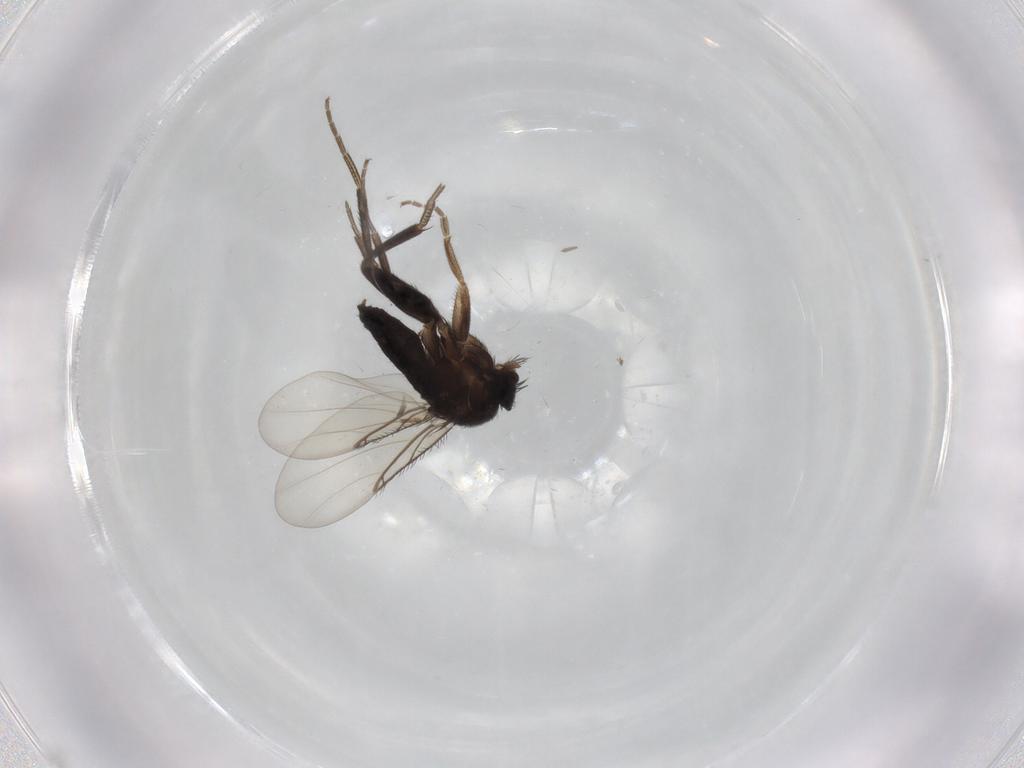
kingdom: Animalia
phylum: Arthropoda
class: Insecta
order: Diptera
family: Phoridae
